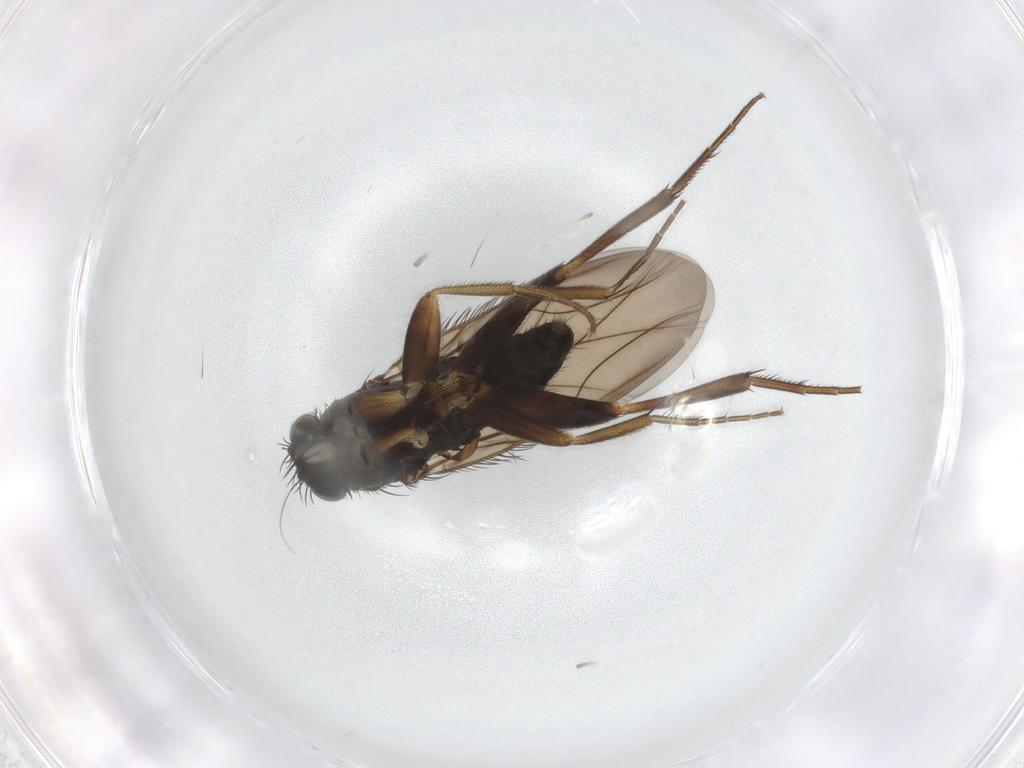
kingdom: Animalia
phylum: Arthropoda
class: Insecta
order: Diptera
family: Phoridae
